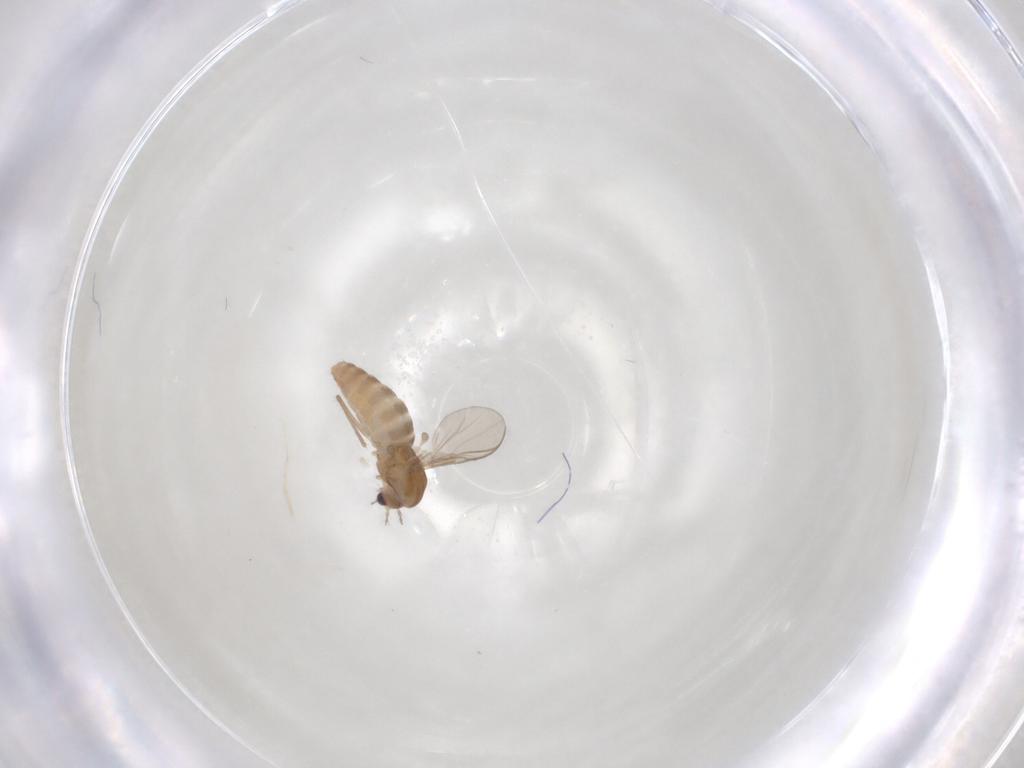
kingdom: Animalia
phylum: Arthropoda
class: Insecta
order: Diptera
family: Chironomidae
